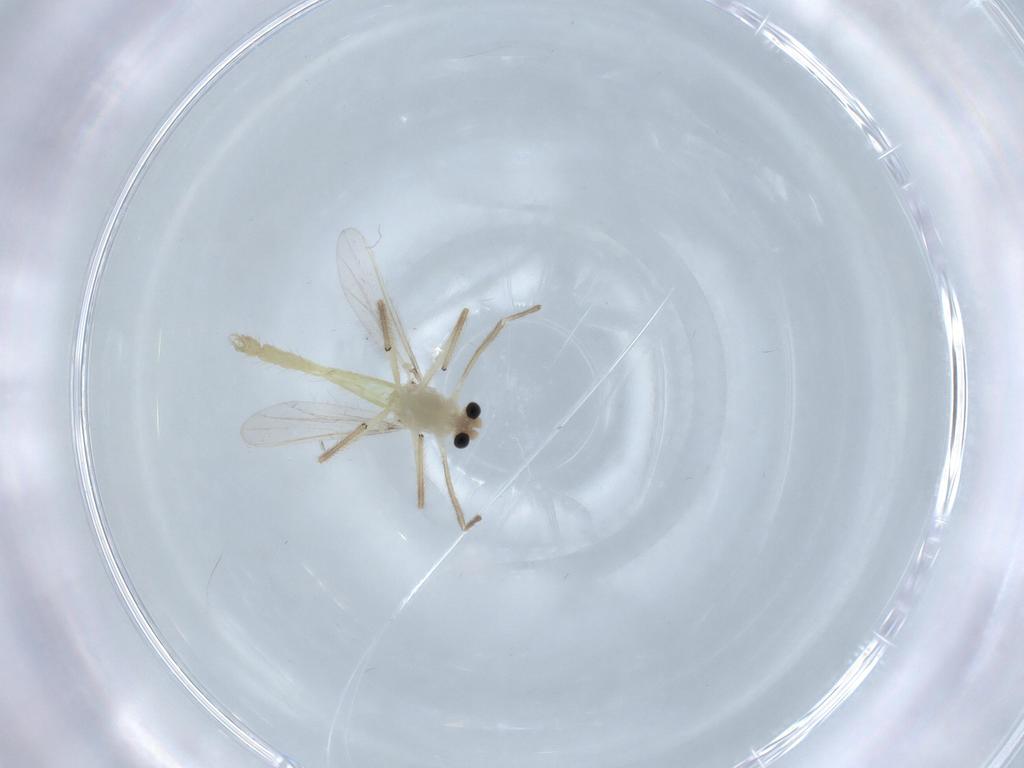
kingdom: Animalia
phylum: Arthropoda
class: Insecta
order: Diptera
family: Chironomidae
